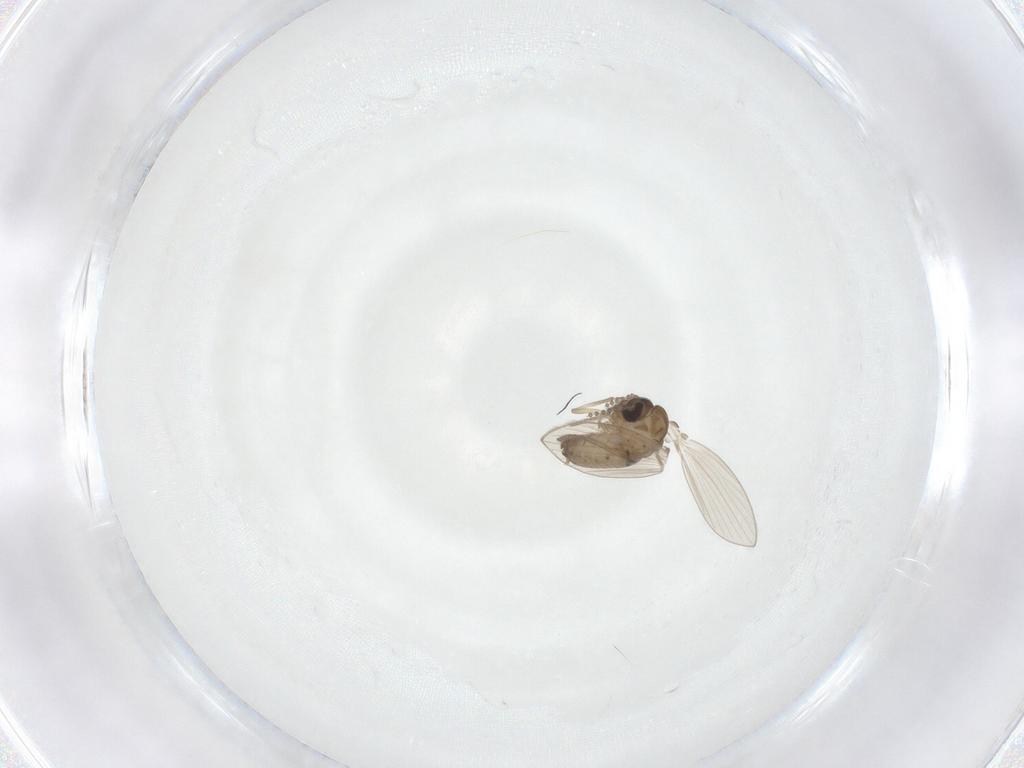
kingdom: Animalia
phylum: Arthropoda
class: Insecta
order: Diptera
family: Psychodidae
